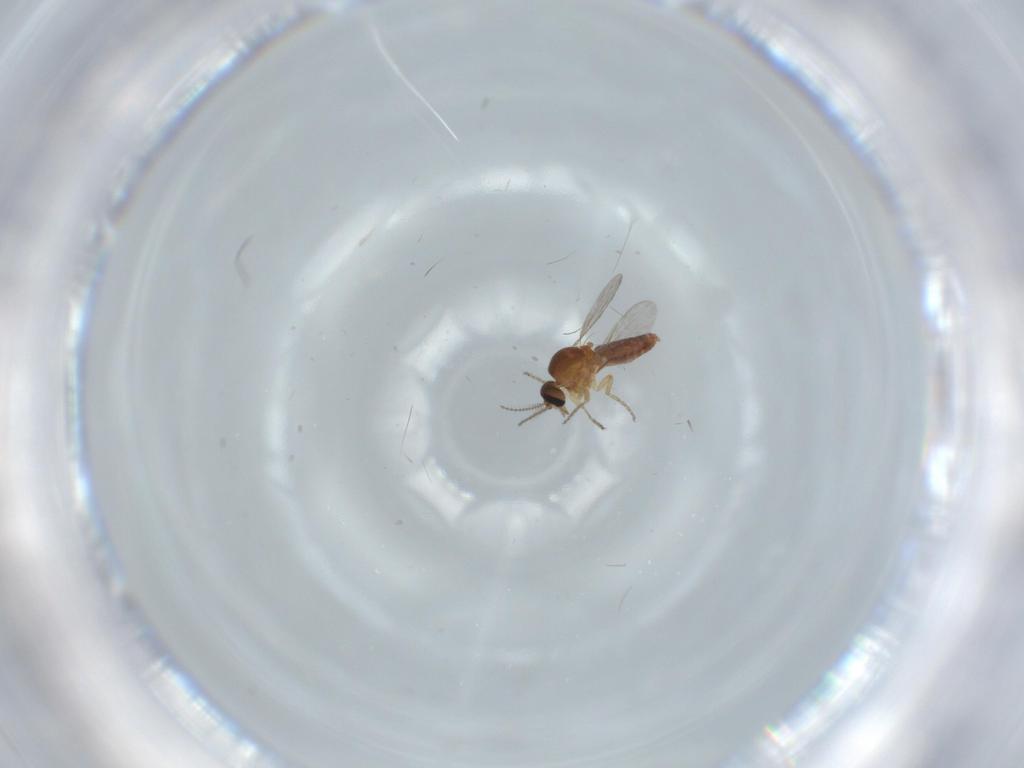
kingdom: Animalia
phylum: Arthropoda
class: Insecta
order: Diptera
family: Sciaridae
